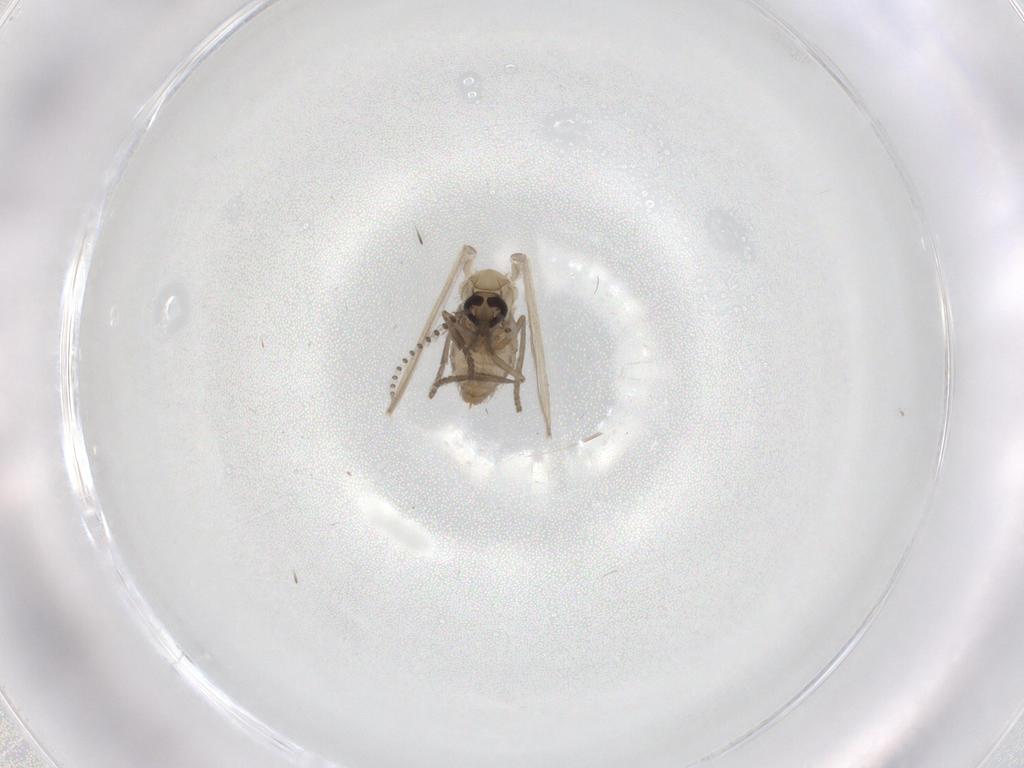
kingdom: Animalia
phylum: Arthropoda
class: Insecta
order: Diptera
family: Psychodidae
